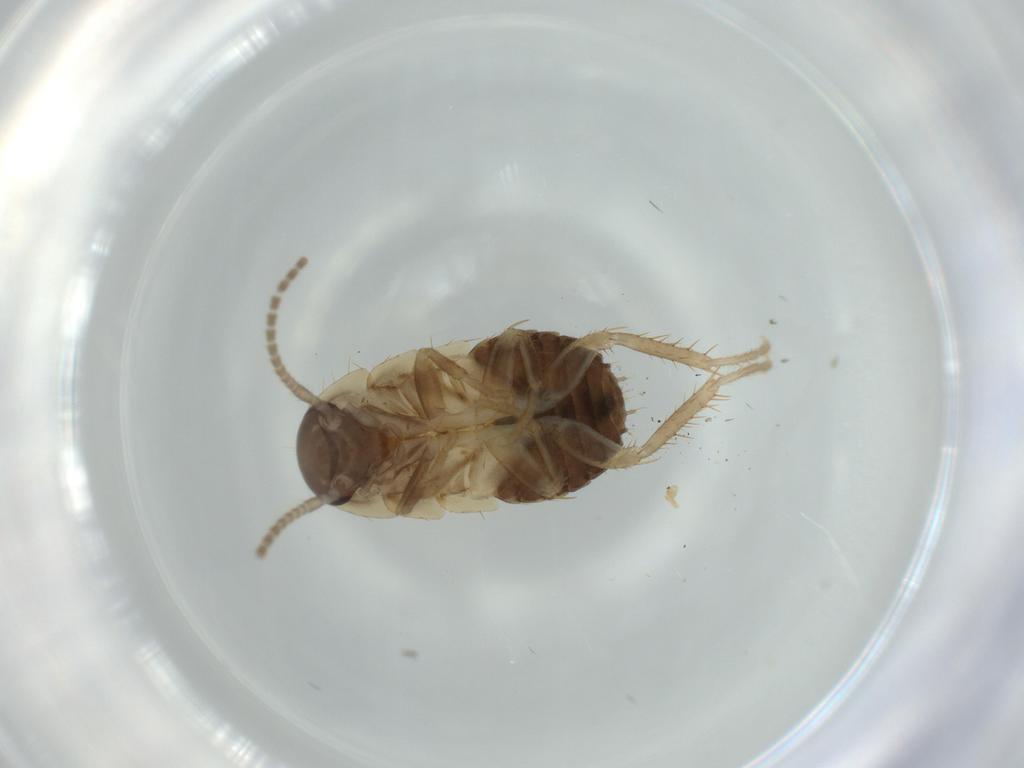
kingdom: Animalia
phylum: Arthropoda
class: Insecta
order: Blattodea
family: Ectobiidae
